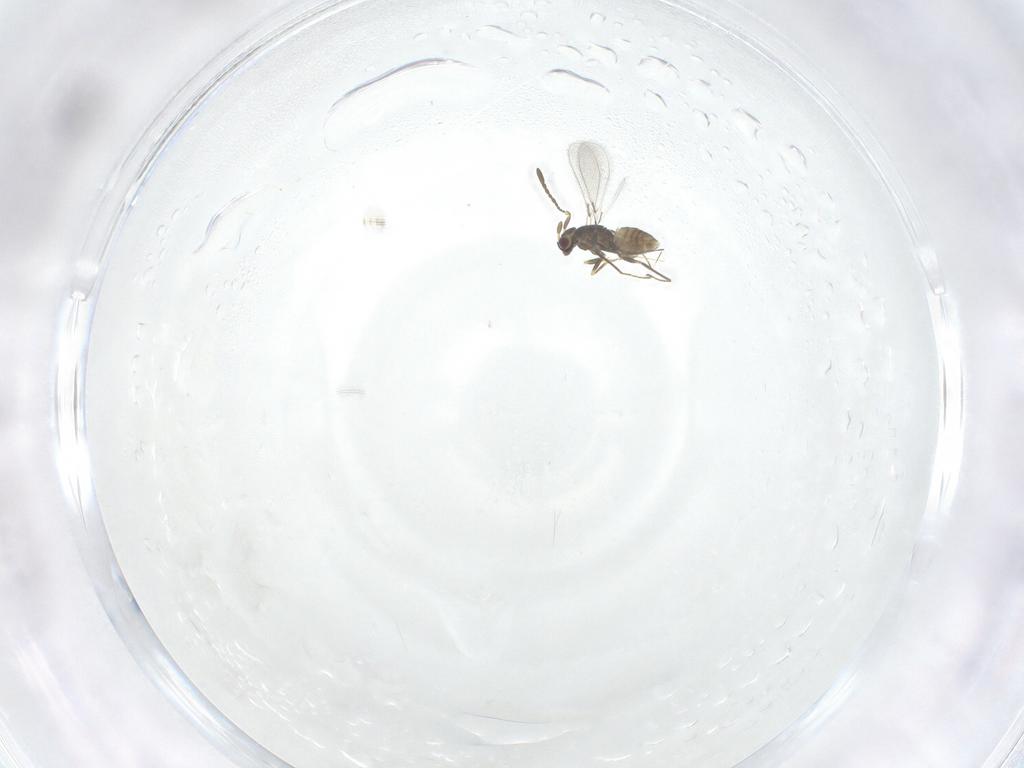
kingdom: Animalia
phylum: Arthropoda
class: Insecta
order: Hymenoptera
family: Mymaridae
